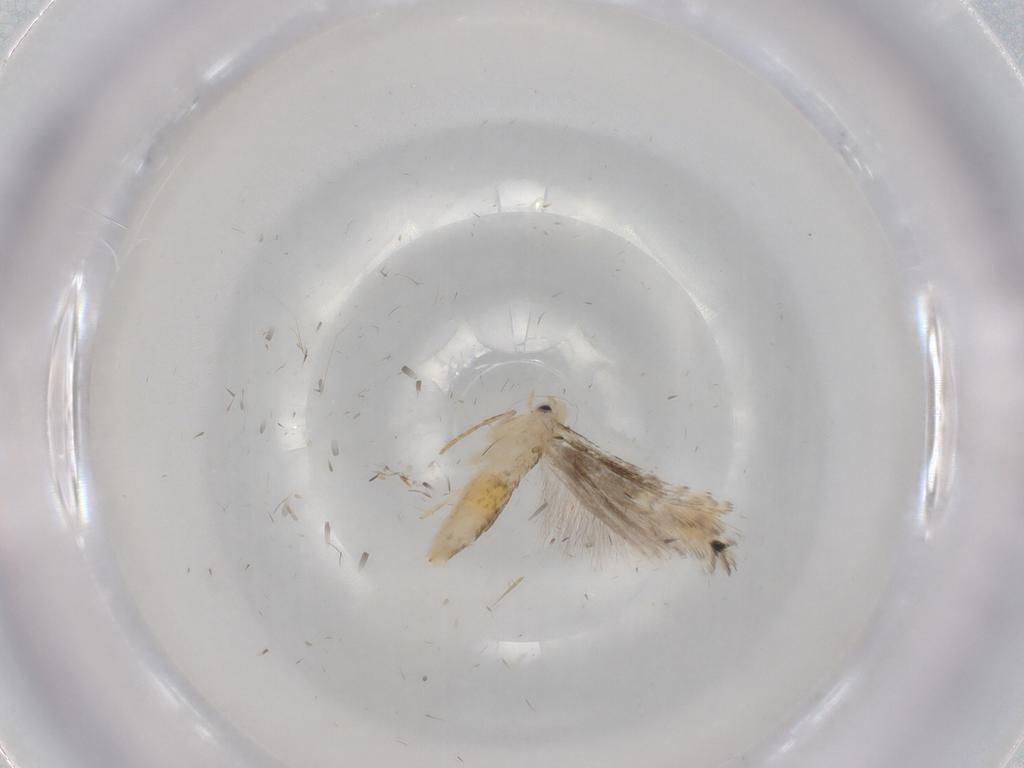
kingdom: Animalia
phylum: Arthropoda
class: Insecta
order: Lepidoptera
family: Gracillariidae
